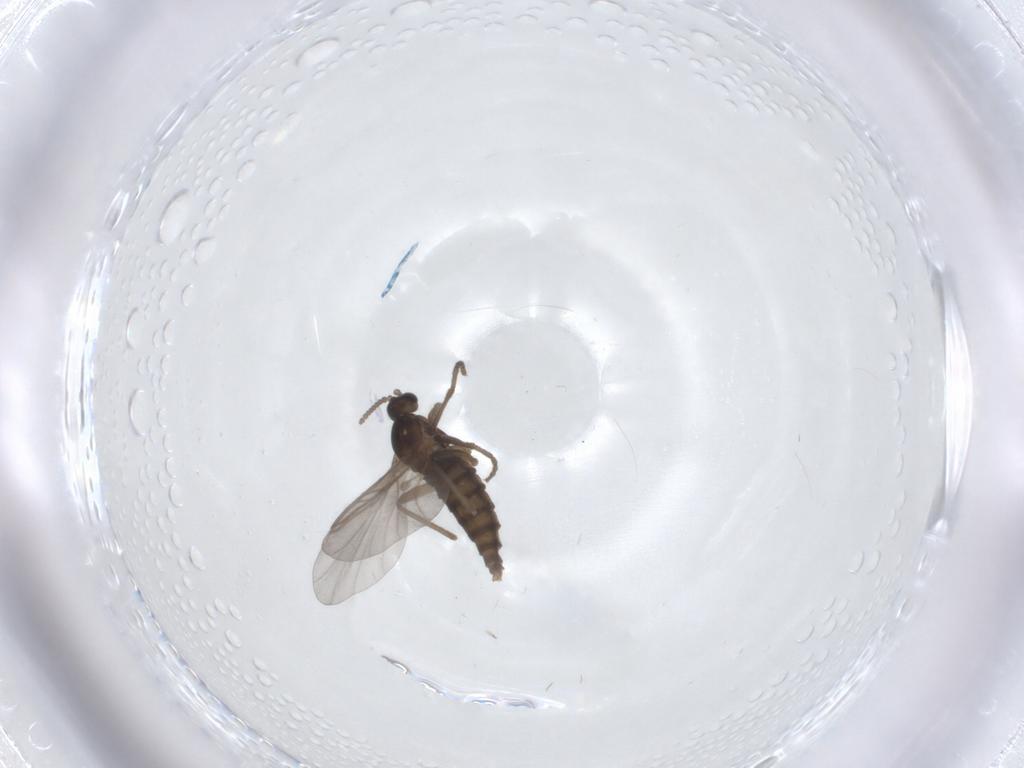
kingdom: Animalia
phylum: Arthropoda
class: Insecta
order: Diptera
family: Cecidomyiidae
